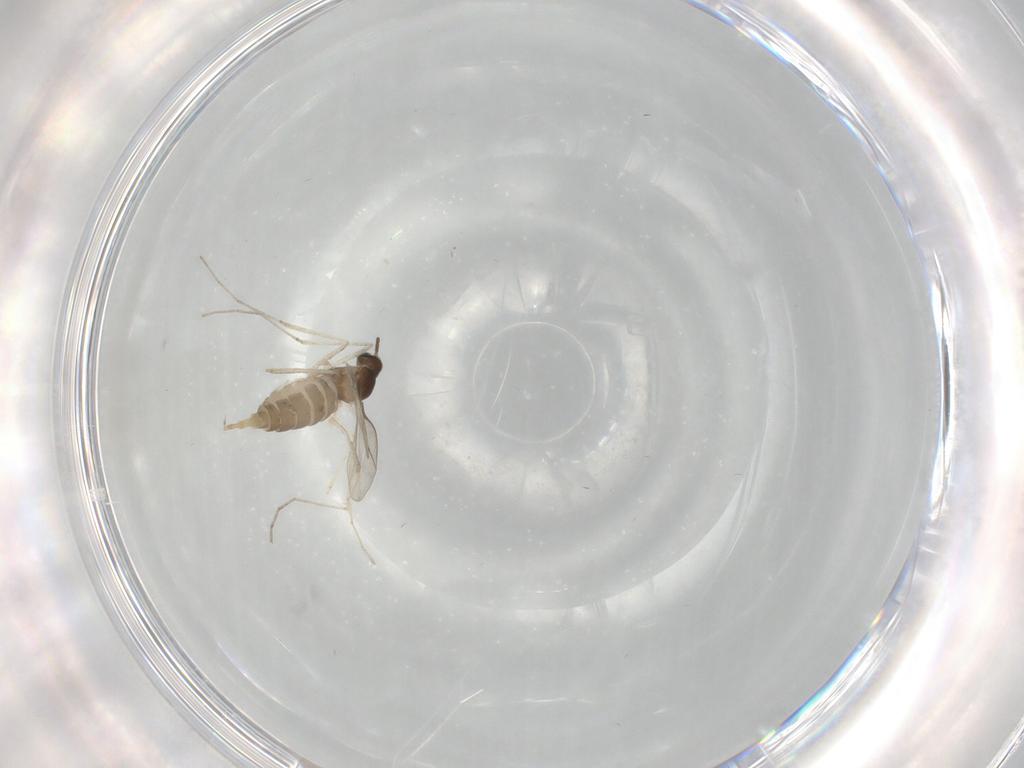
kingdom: Animalia
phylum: Arthropoda
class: Insecta
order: Diptera
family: Cecidomyiidae
